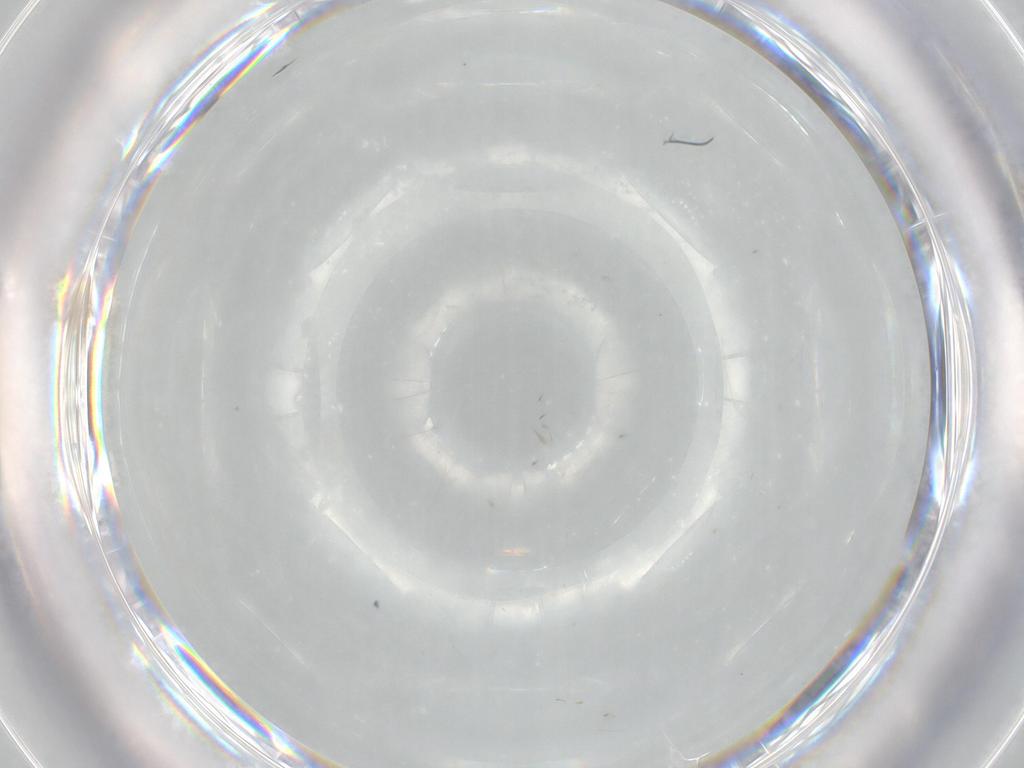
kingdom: Animalia
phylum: Arthropoda
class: Insecta
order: Hymenoptera
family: Mymaridae
